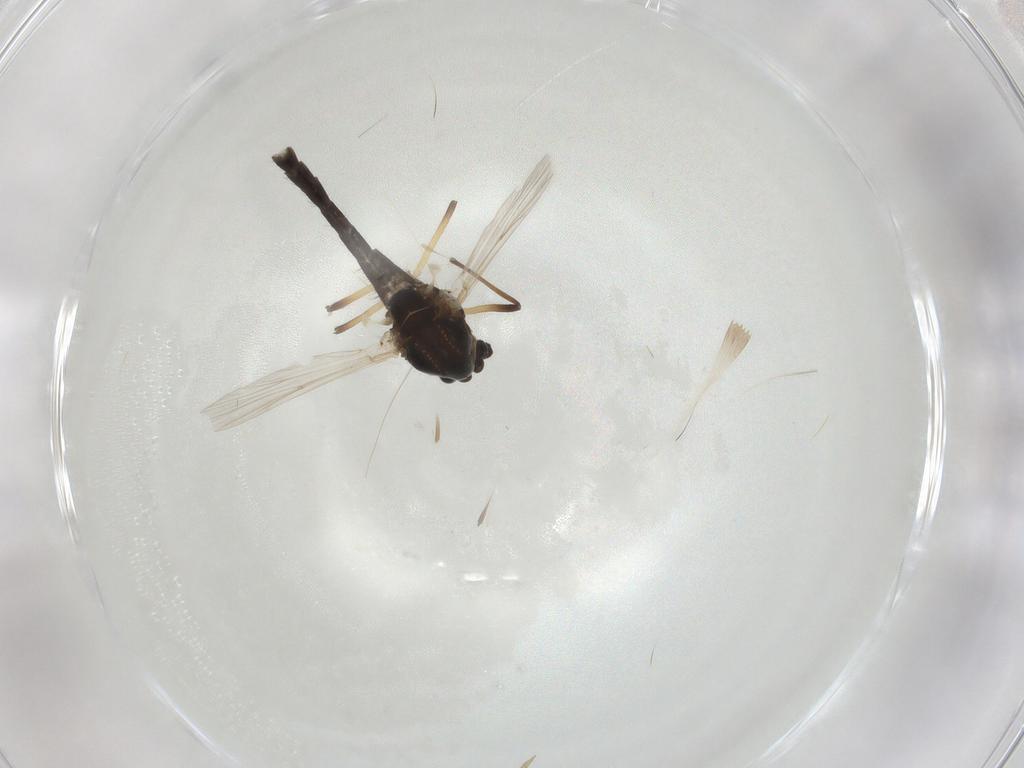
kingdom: Animalia
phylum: Arthropoda
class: Insecta
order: Diptera
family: Chironomidae
